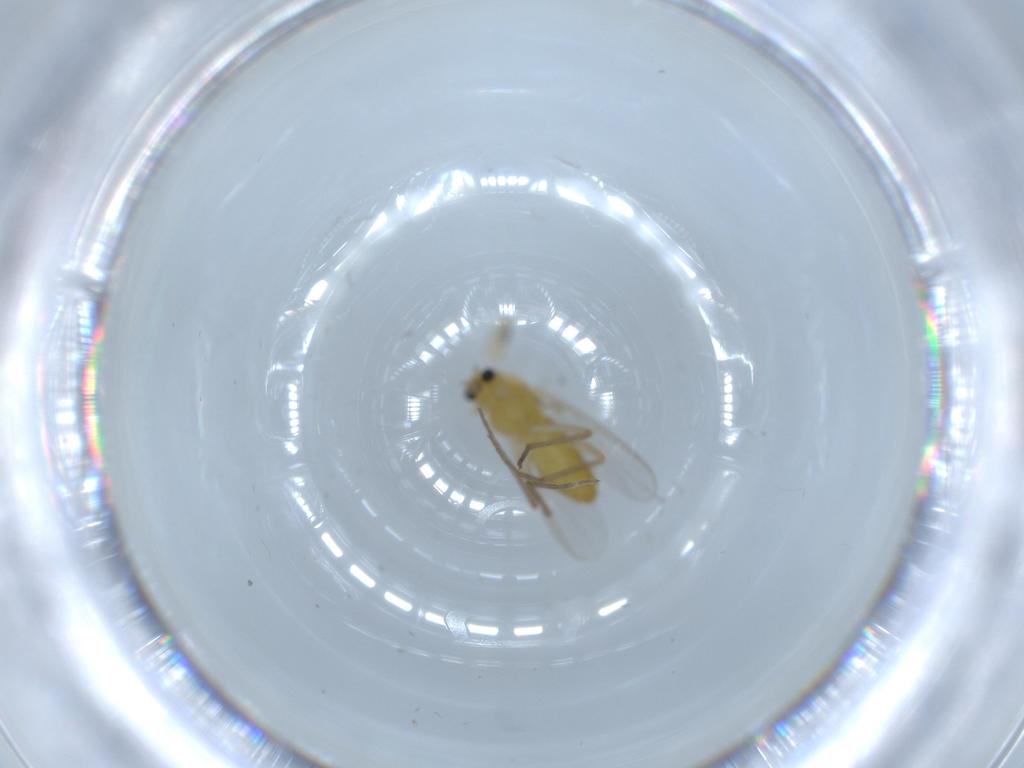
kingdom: Animalia
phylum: Arthropoda
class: Insecta
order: Diptera
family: Chironomidae
